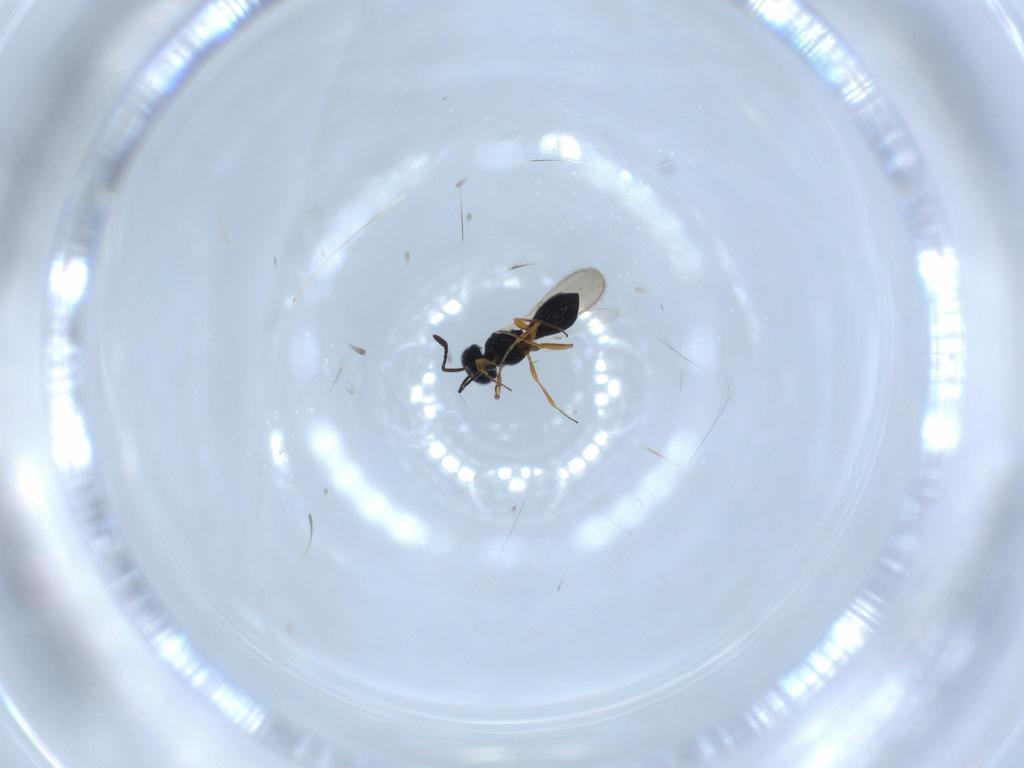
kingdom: Animalia
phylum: Arthropoda
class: Insecta
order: Hymenoptera
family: Scelionidae
